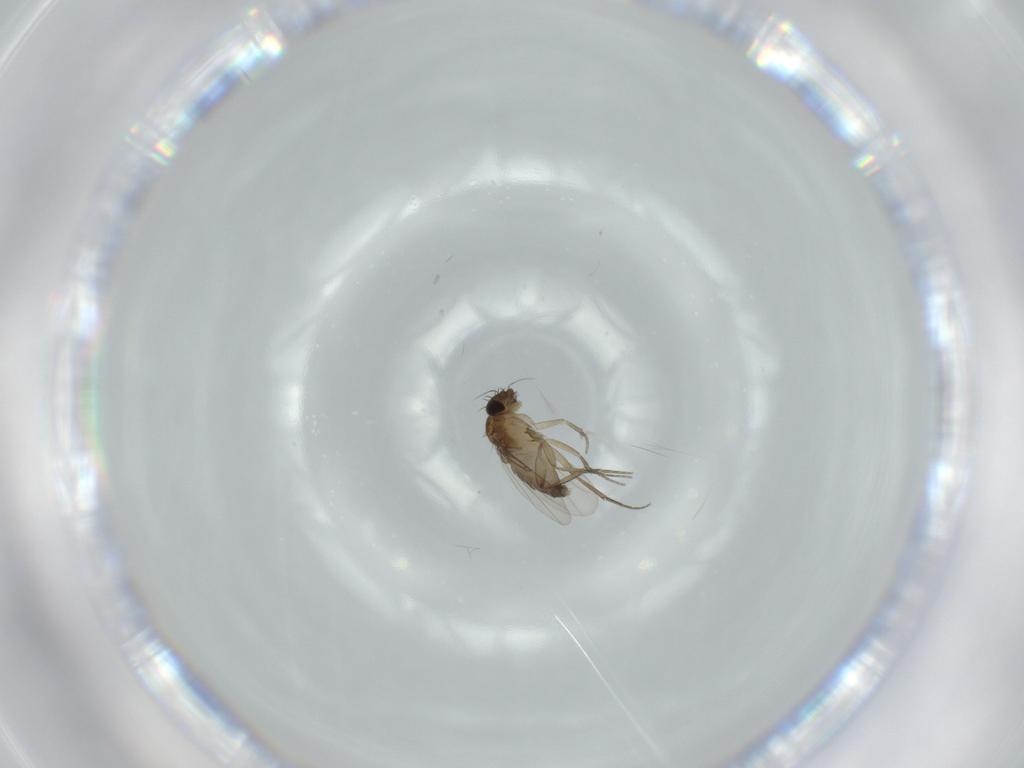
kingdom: Animalia
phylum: Arthropoda
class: Insecta
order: Diptera
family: Phoridae
